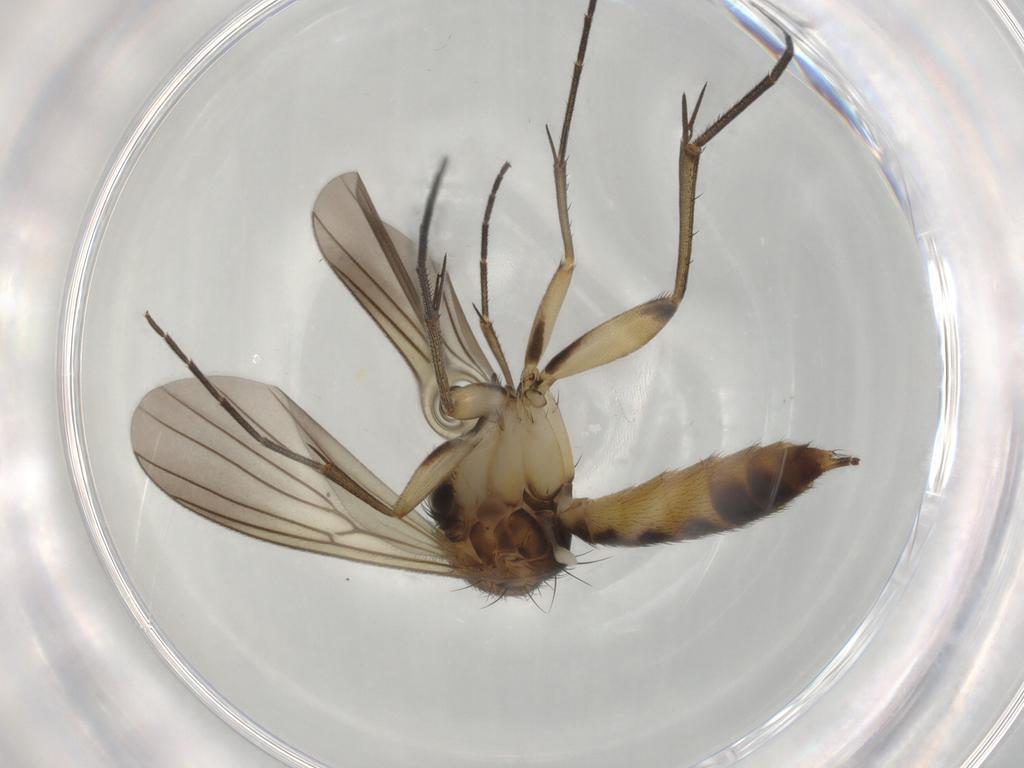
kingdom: Animalia
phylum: Arthropoda
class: Insecta
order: Diptera
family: Mycetophilidae
